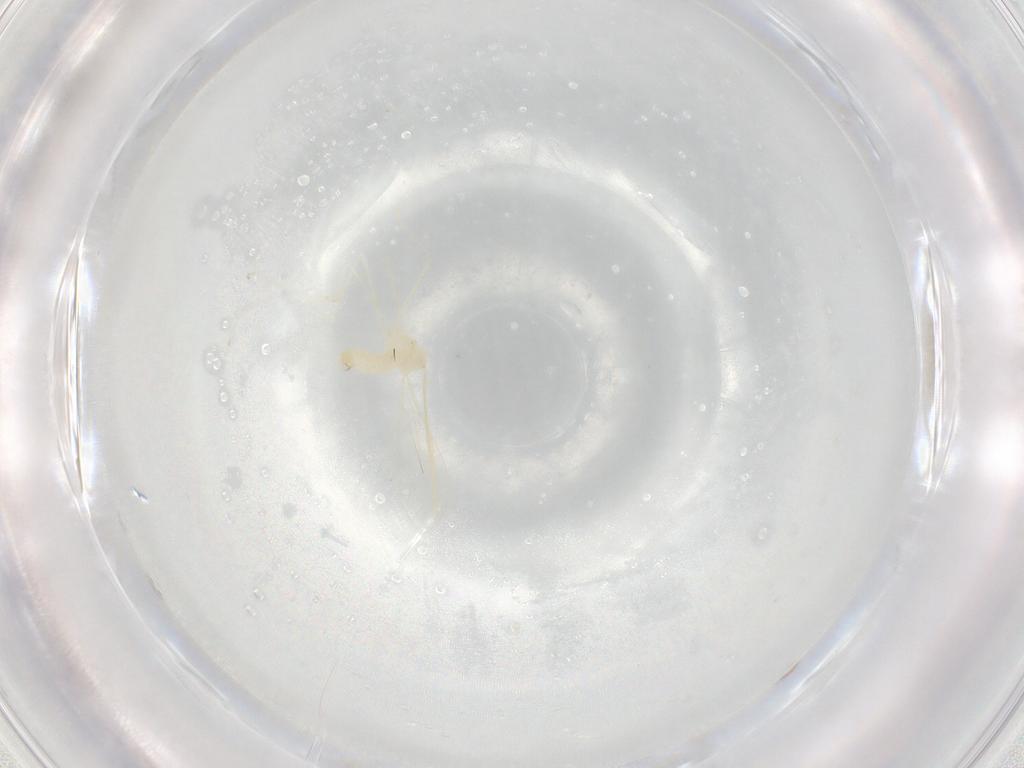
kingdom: Animalia
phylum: Arthropoda
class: Insecta
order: Diptera
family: Cecidomyiidae
